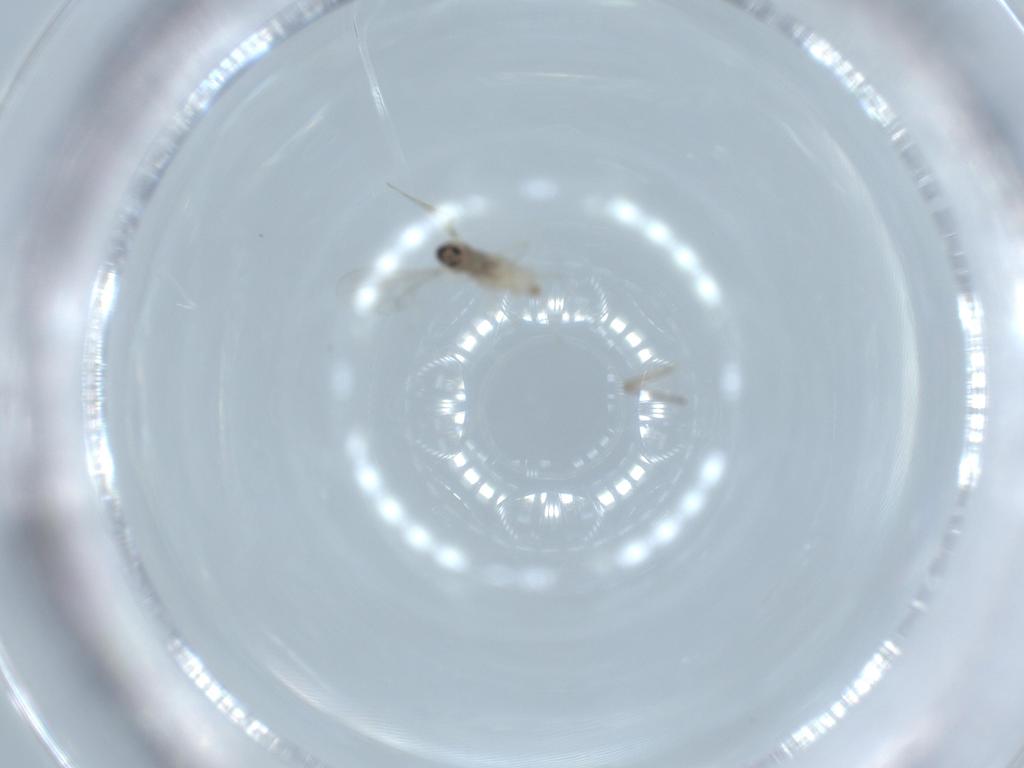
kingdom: Animalia
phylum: Arthropoda
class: Insecta
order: Diptera
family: Cecidomyiidae
